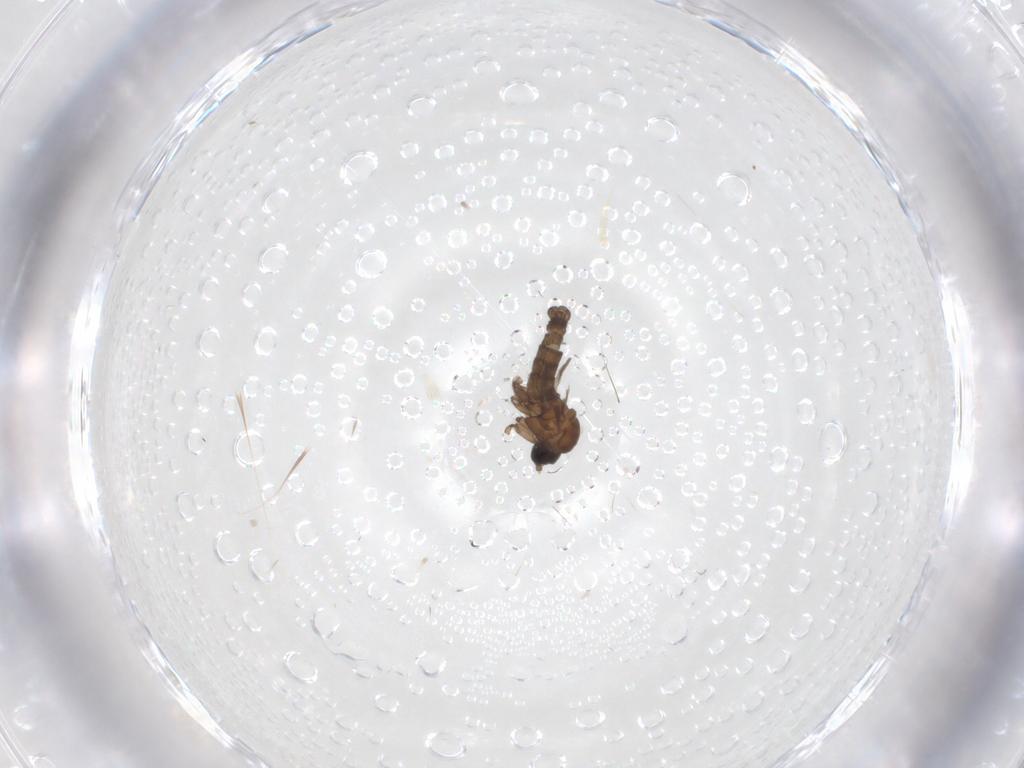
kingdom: Animalia
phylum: Arthropoda
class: Insecta
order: Diptera
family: Sciaridae
